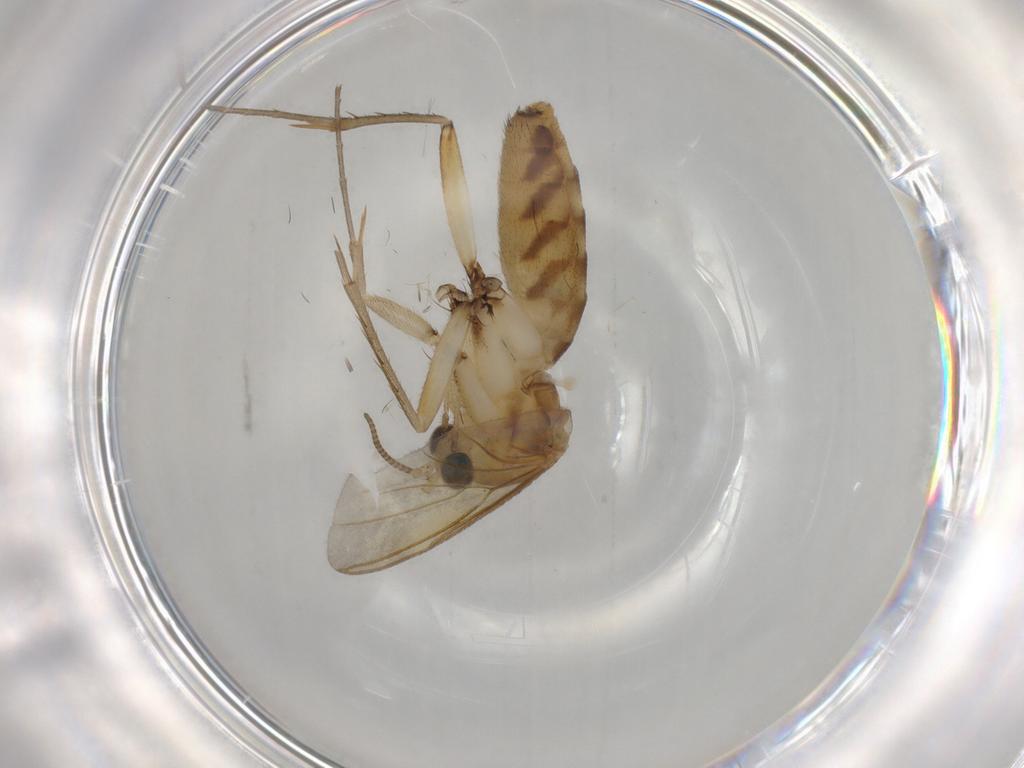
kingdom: Animalia
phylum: Arthropoda
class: Insecta
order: Diptera
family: Mycetophilidae
